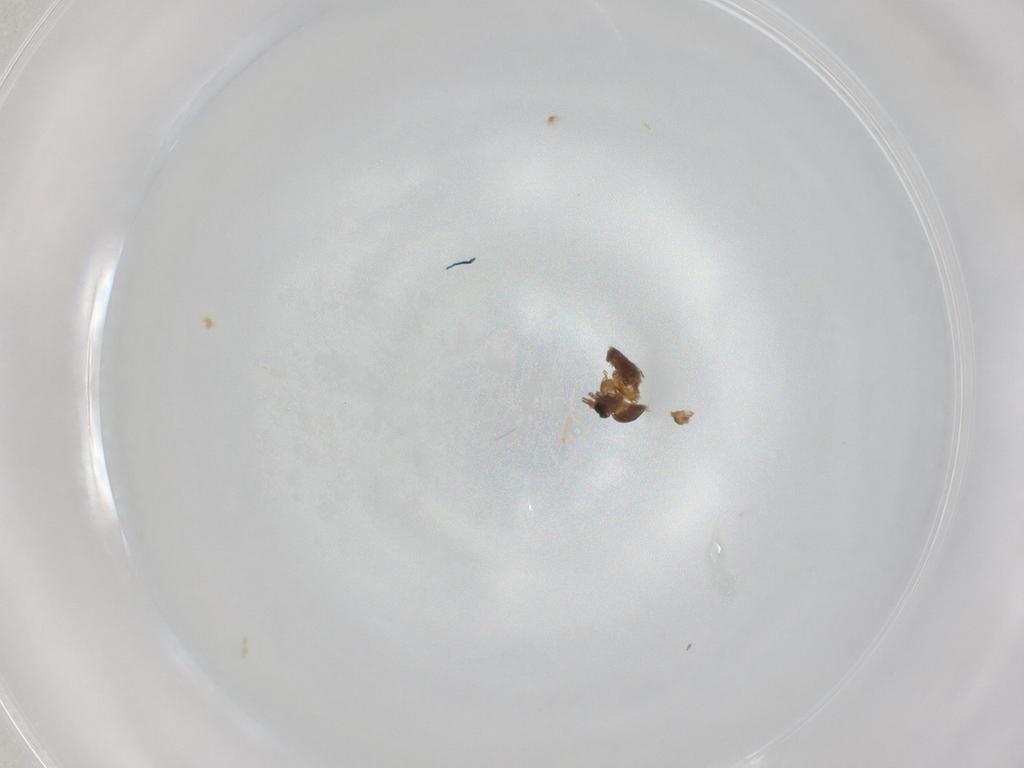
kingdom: Animalia
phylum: Arthropoda
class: Insecta
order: Diptera
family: Ceratopogonidae
